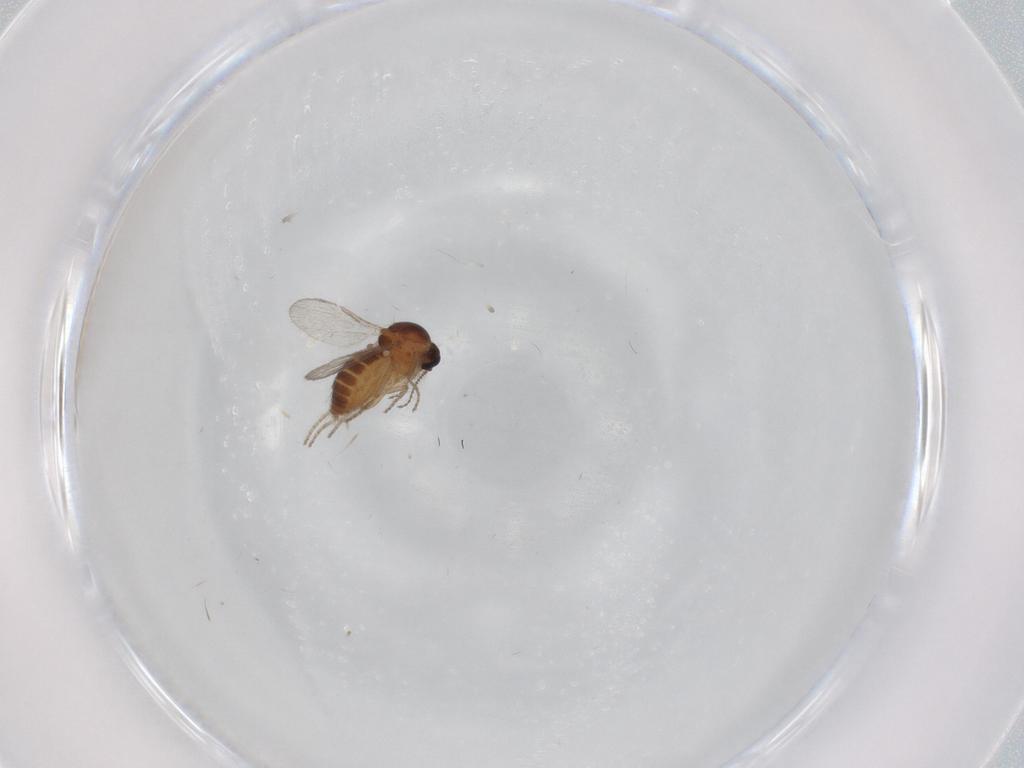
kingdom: Animalia
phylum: Arthropoda
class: Insecta
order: Diptera
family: Ceratopogonidae
